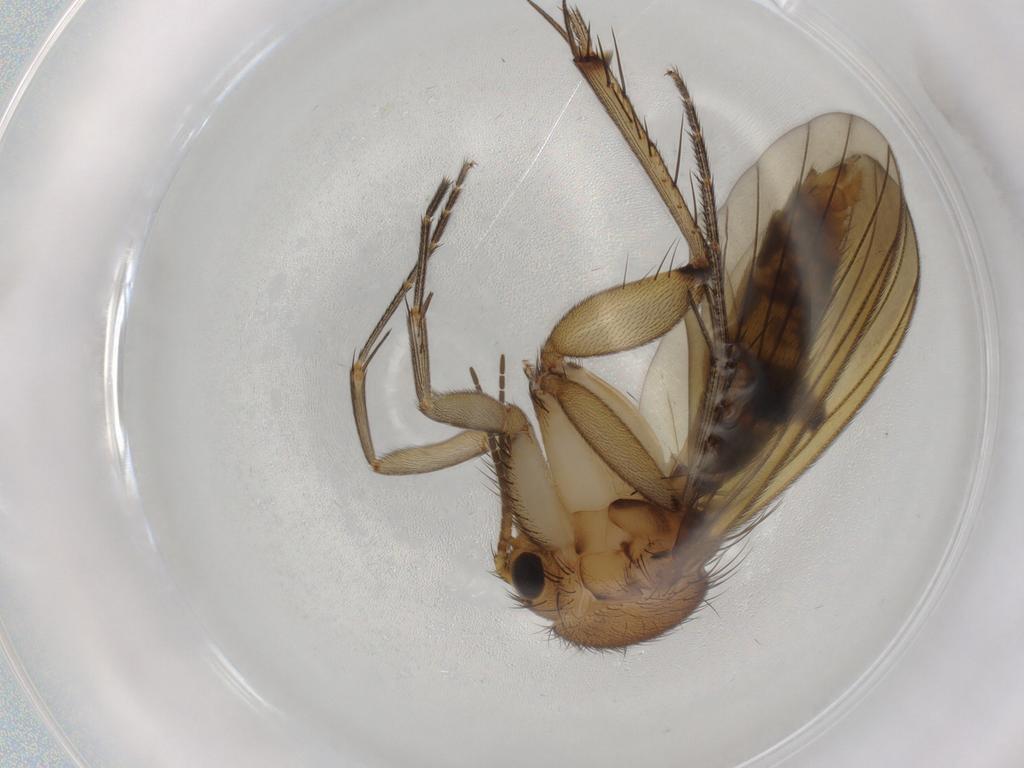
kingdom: Animalia
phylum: Arthropoda
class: Insecta
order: Diptera
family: Mycetophilidae
